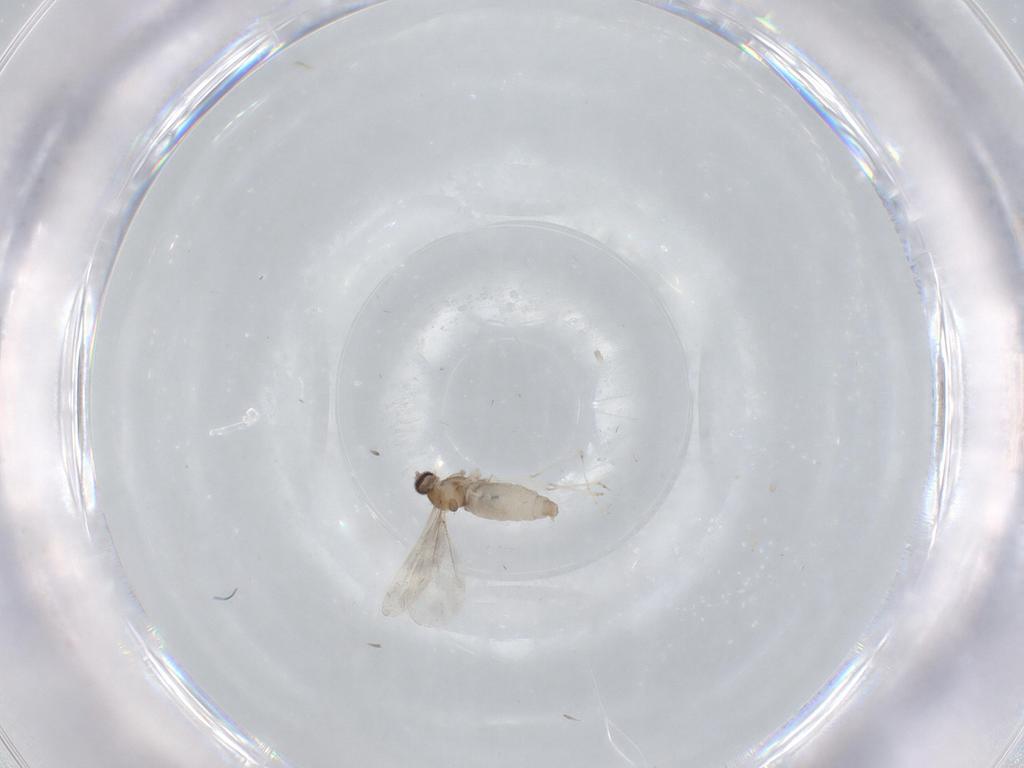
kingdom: Animalia
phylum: Arthropoda
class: Insecta
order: Diptera
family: Cecidomyiidae
